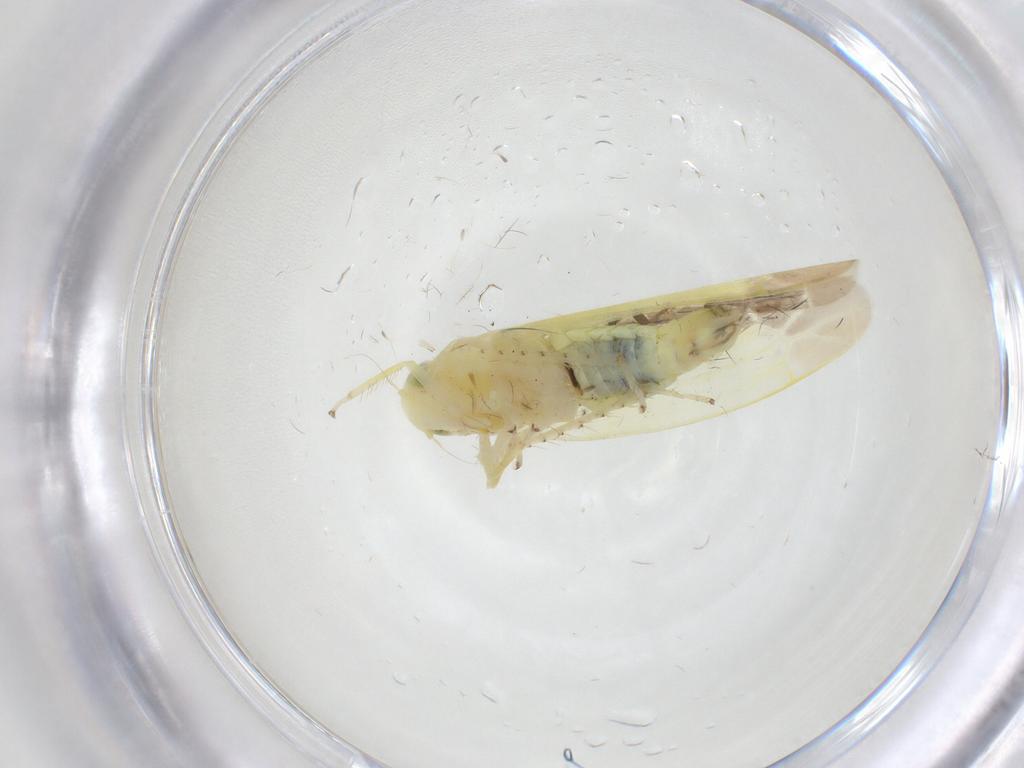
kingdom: Animalia
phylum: Arthropoda
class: Insecta
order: Hemiptera
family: Cicadellidae
